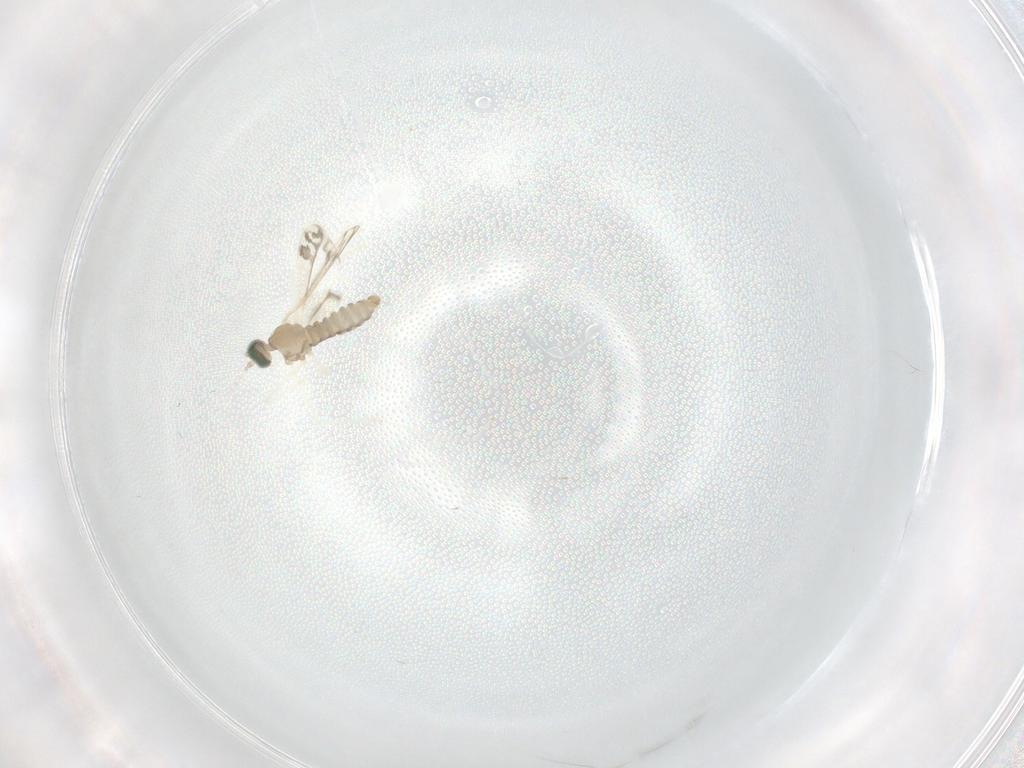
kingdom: Animalia
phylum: Arthropoda
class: Insecta
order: Diptera
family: Cecidomyiidae
